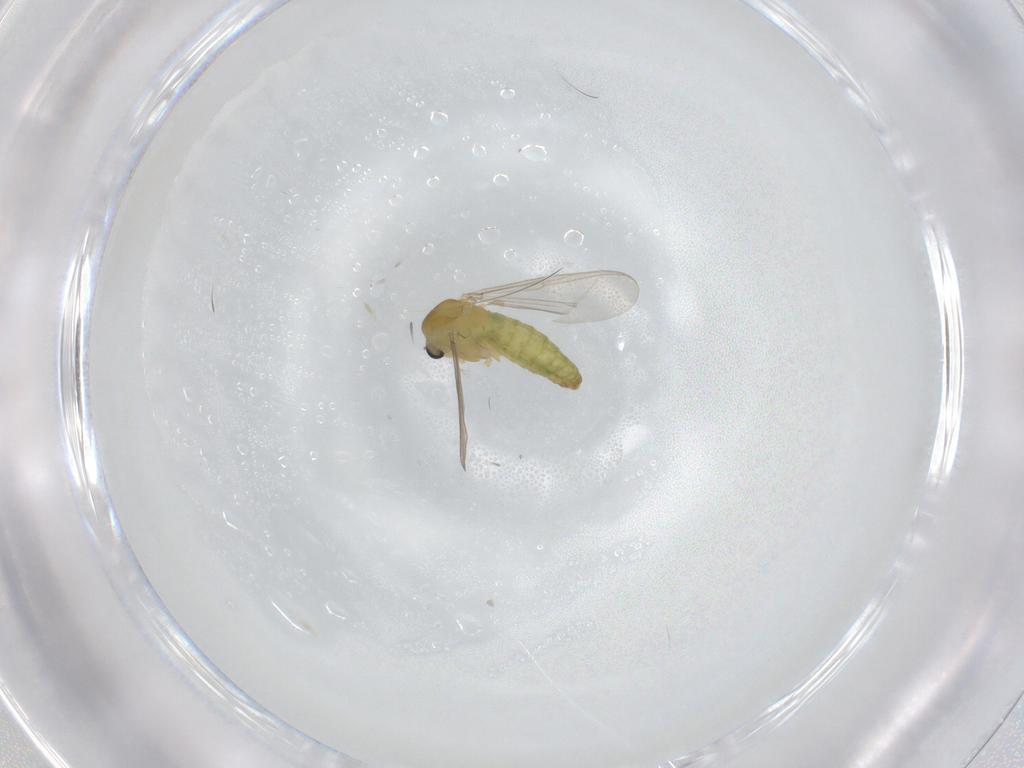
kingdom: Animalia
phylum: Arthropoda
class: Insecta
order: Diptera
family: Chironomidae
